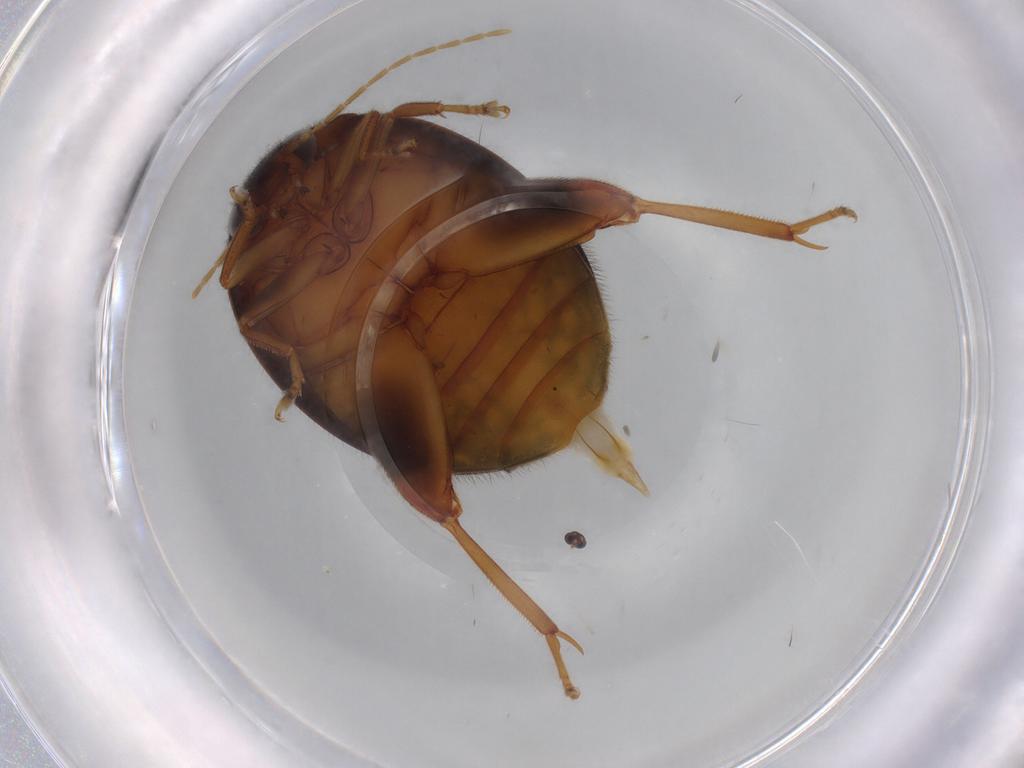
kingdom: Animalia
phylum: Arthropoda
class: Insecta
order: Coleoptera
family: Scirtidae
